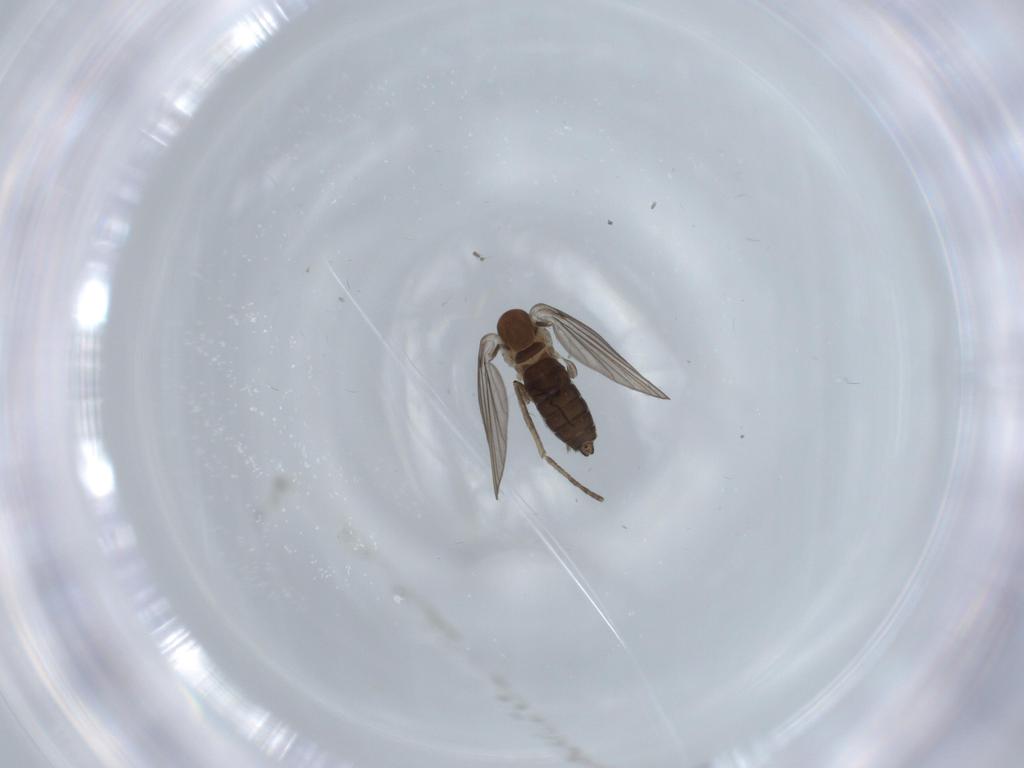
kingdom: Animalia
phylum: Arthropoda
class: Insecta
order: Diptera
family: Psychodidae
